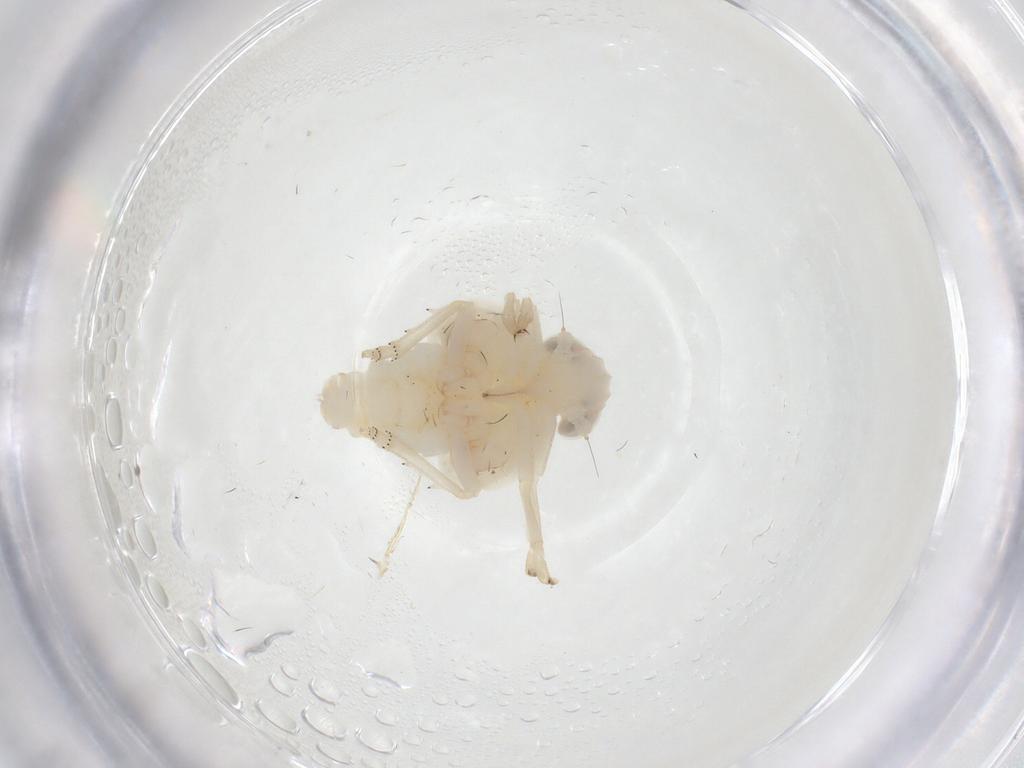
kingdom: Animalia
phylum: Arthropoda
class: Insecta
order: Hemiptera
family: Nogodinidae
